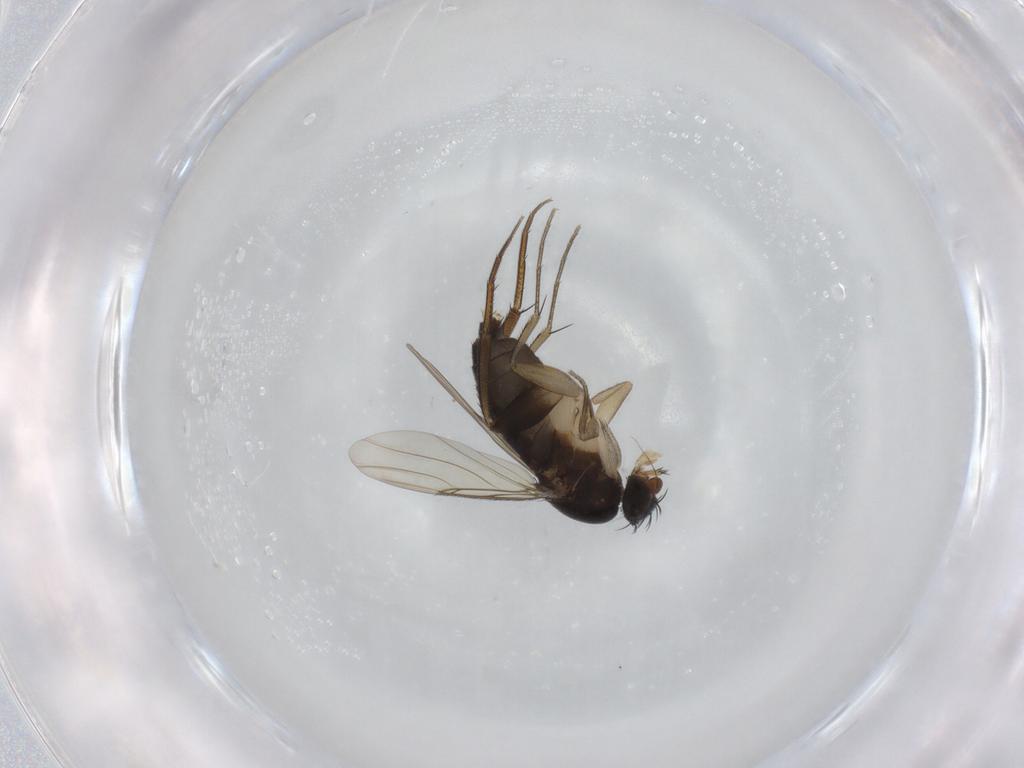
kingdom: Animalia
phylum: Arthropoda
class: Insecta
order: Diptera
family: Phoridae
